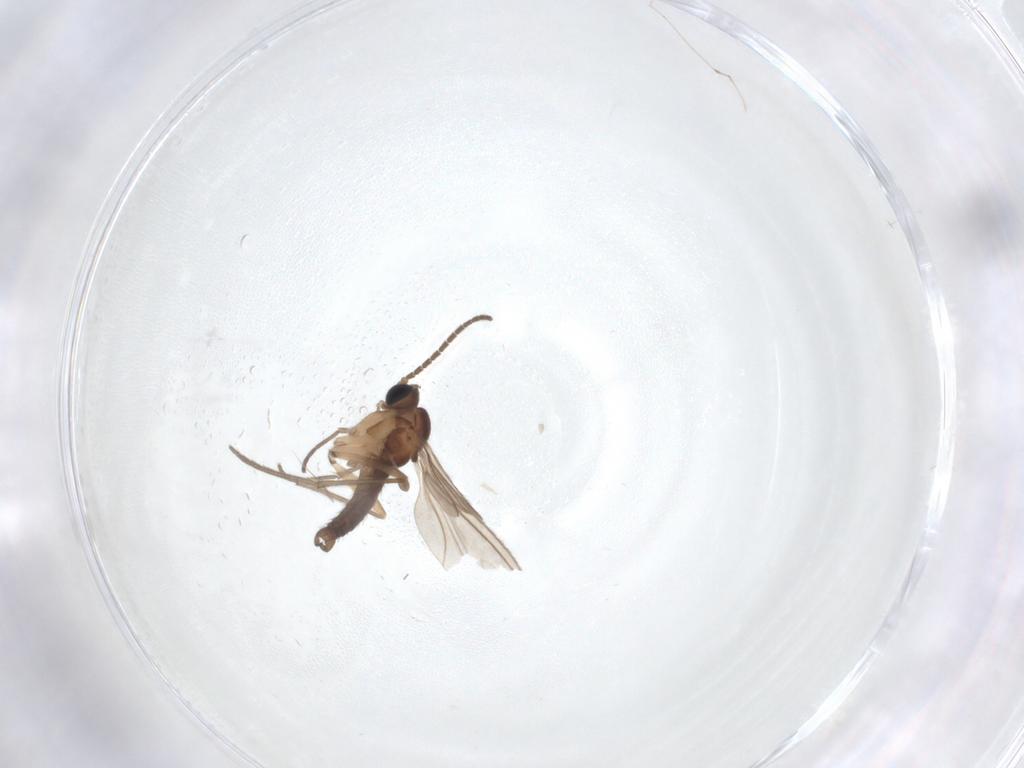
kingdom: Animalia
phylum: Arthropoda
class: Insecta
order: Diptera
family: Sciaridae
